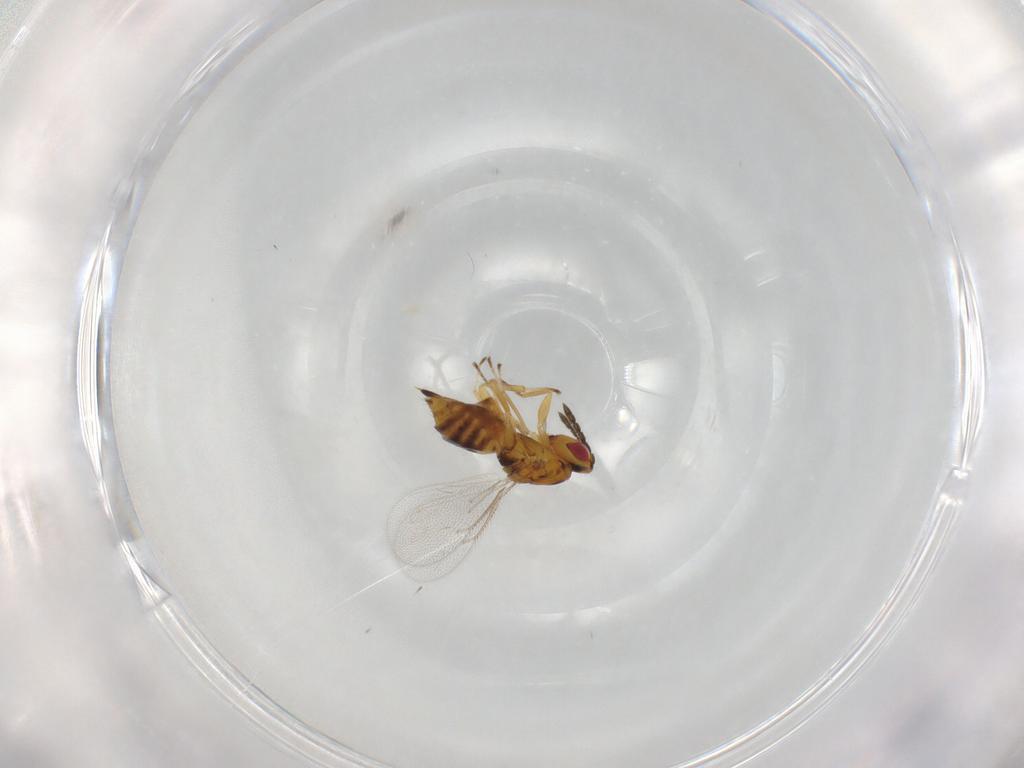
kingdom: Animalia
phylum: Arthropoda
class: Insecta
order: Hymenoptera
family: Eulophidae
